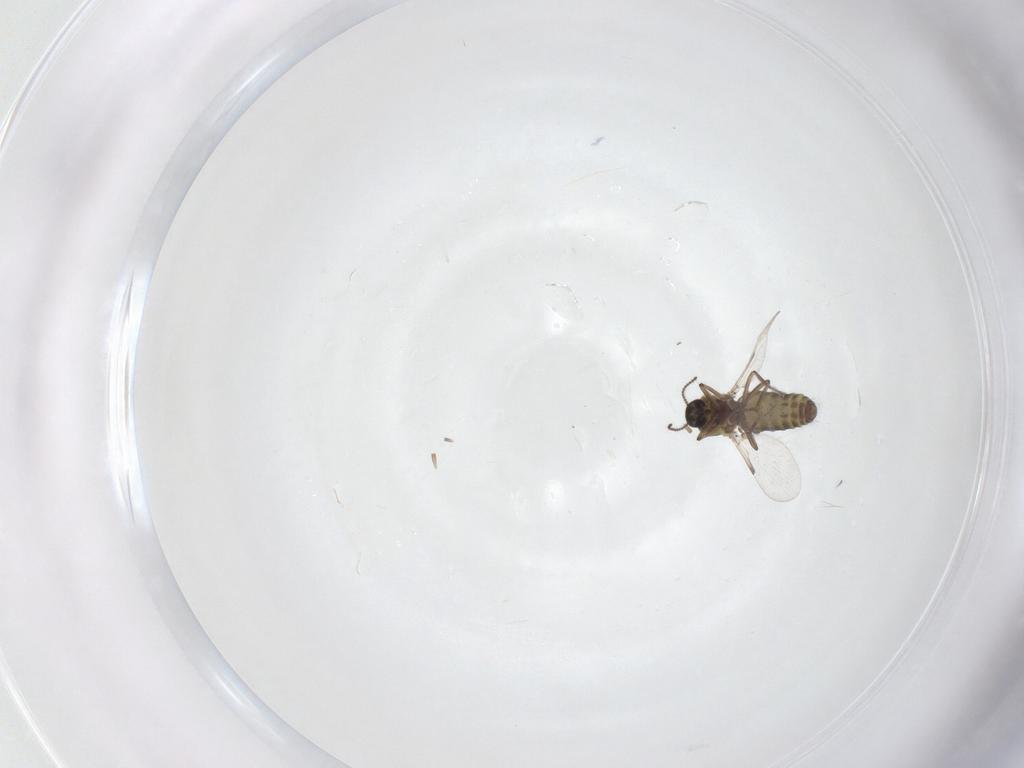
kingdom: Animalia
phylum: Arthropoda
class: Insecta
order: Diptera
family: Ceratopogonidae
